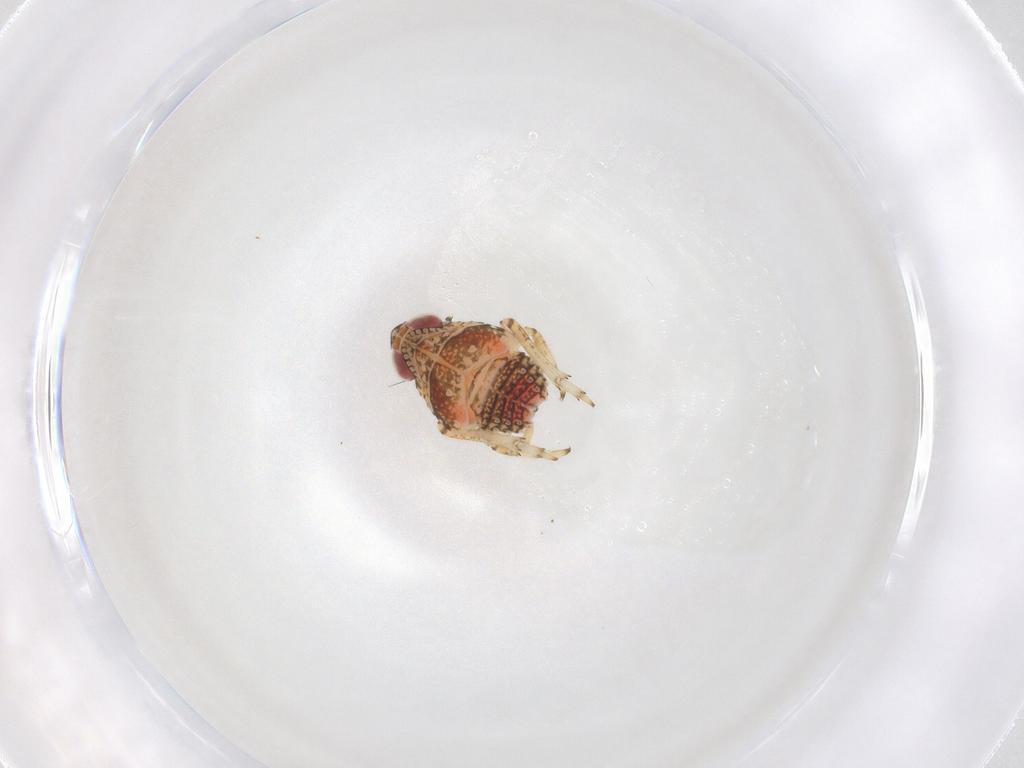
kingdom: Animalia
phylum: Arthropoda
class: Insecta
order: Hemiptera
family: Issidae
